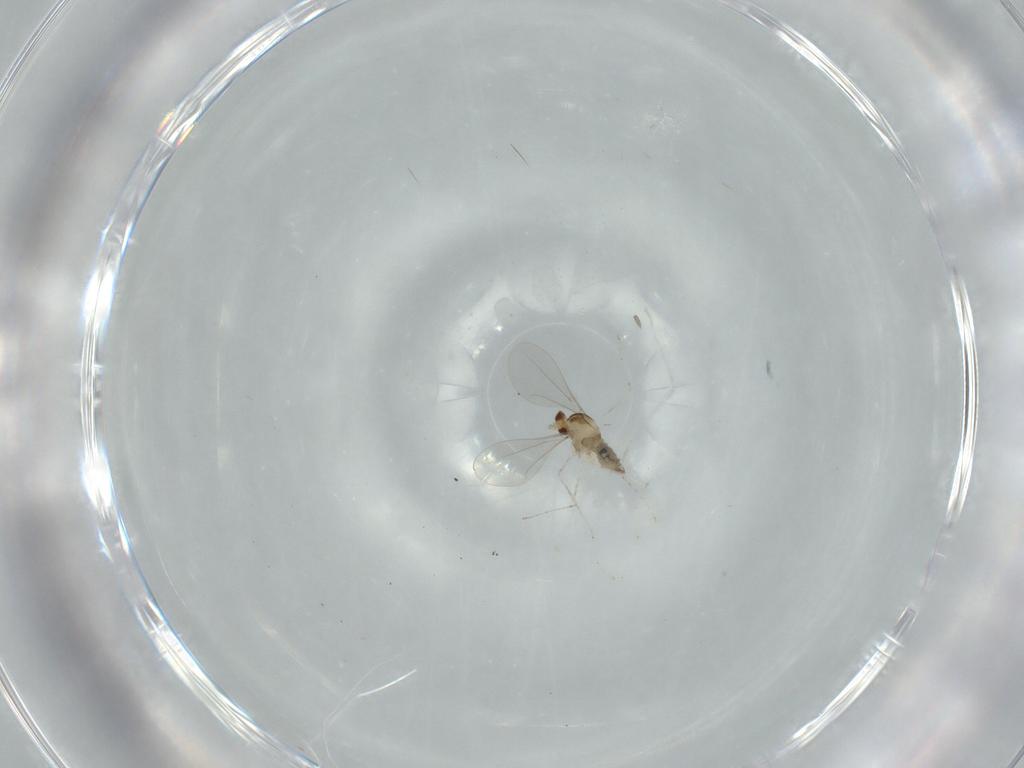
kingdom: Animalia
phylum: Arthropoda
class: Insecta
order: Diptera
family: Cecidomyiidae
